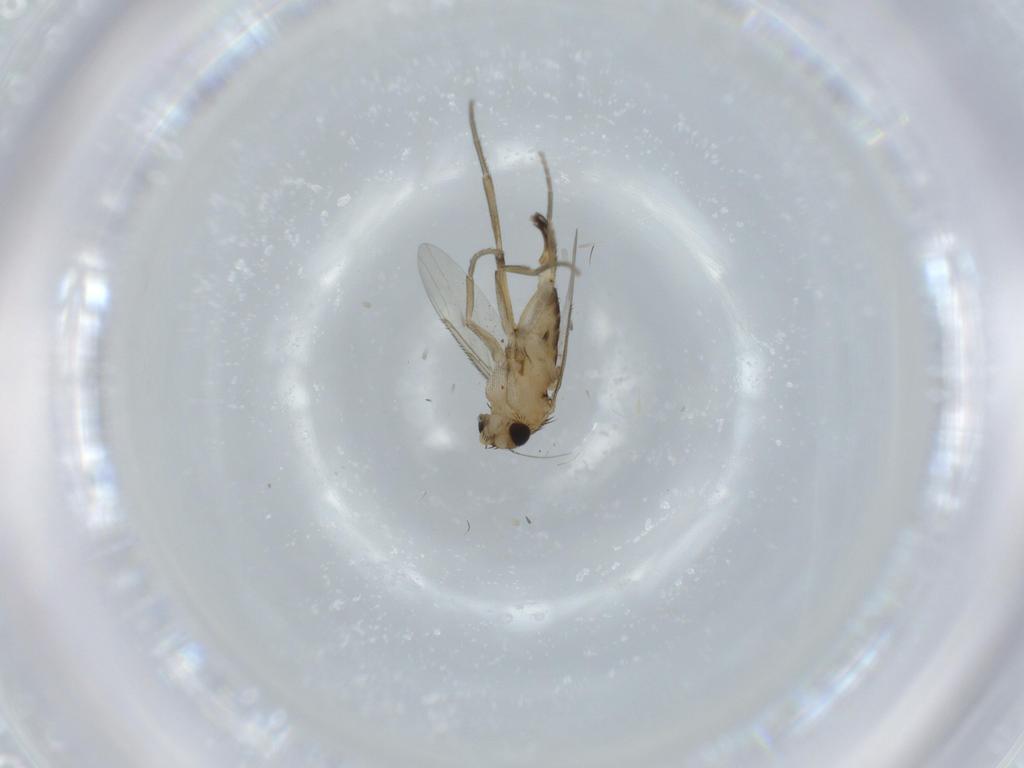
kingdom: Animalia
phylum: Arthropoda
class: Insecta
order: Diptera
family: Phoridae
